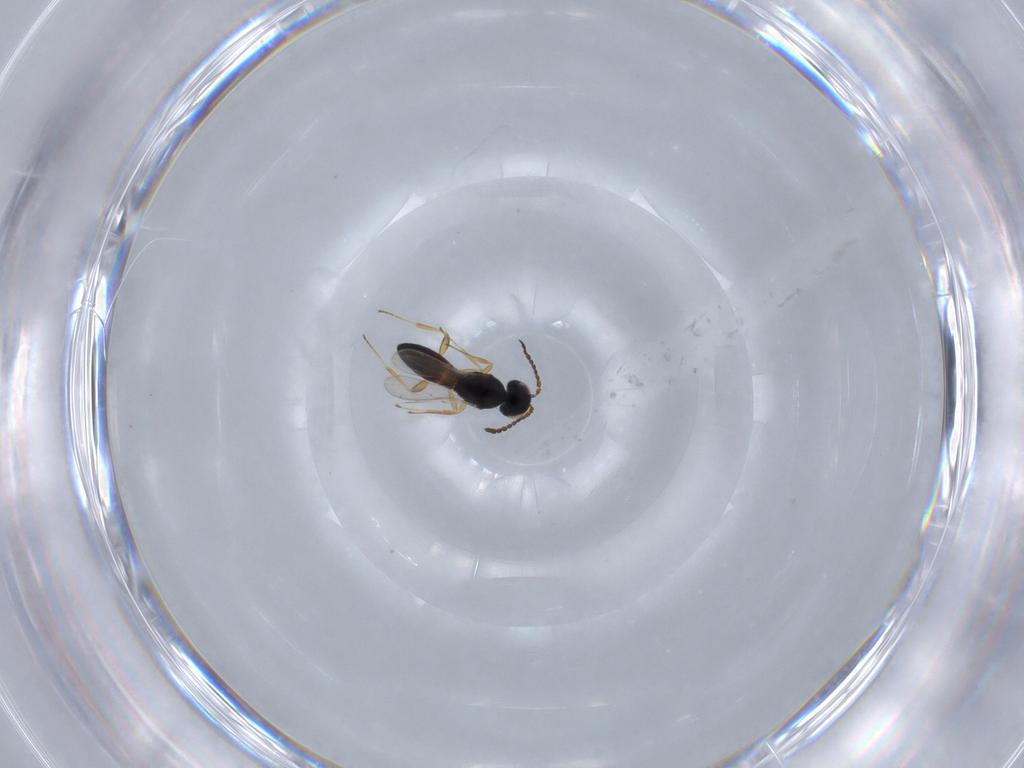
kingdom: Animalia
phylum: Arthropoda
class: Insecta
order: Hymenoptera
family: Scelionidae
